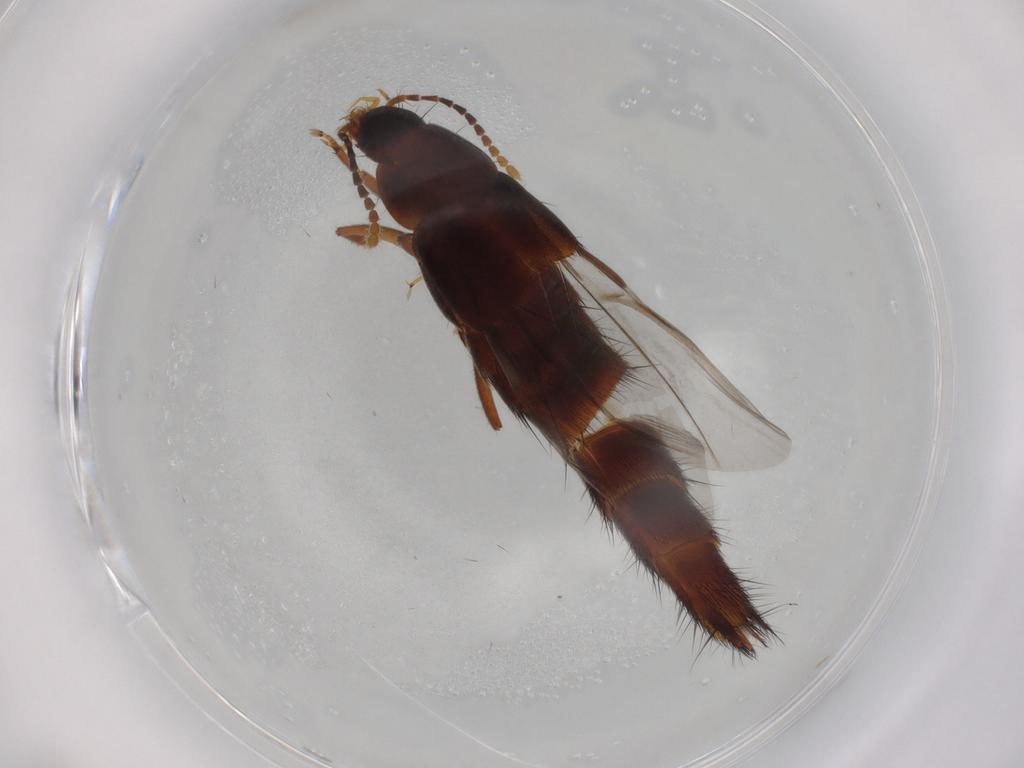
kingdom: Animalia
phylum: Arthropoda
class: Insecta
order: Coleoptera
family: Staphylinidae
